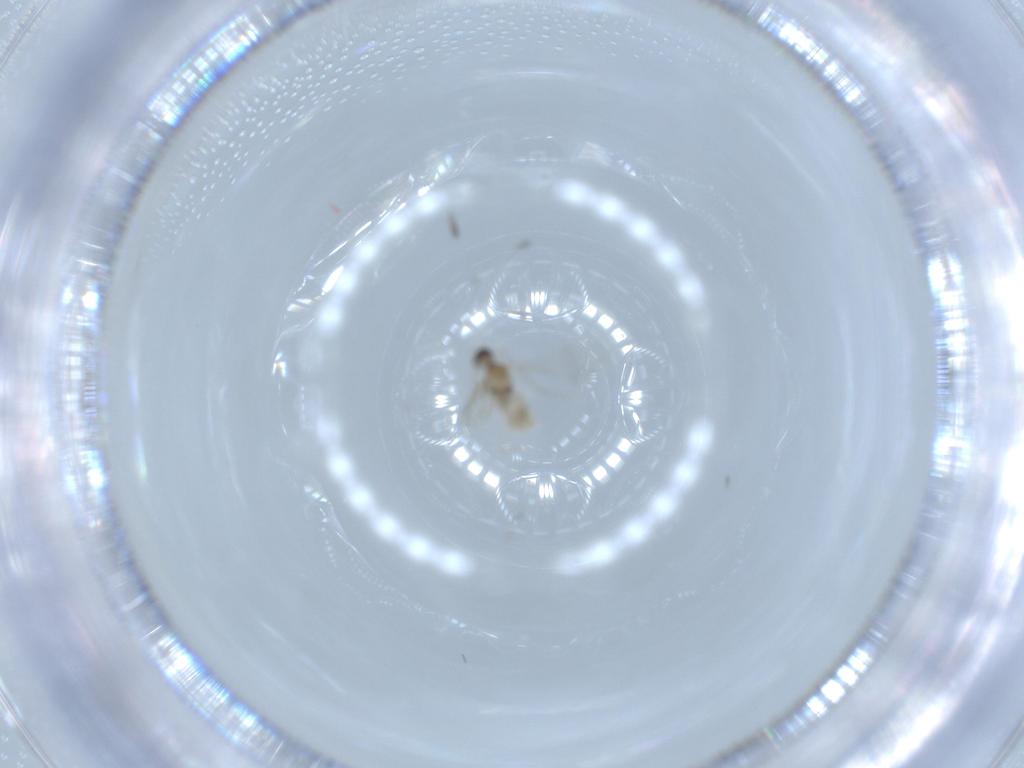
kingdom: Animalia
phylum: Arthropoda
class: Insecta
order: Diptera
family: Cecidomyiidae
